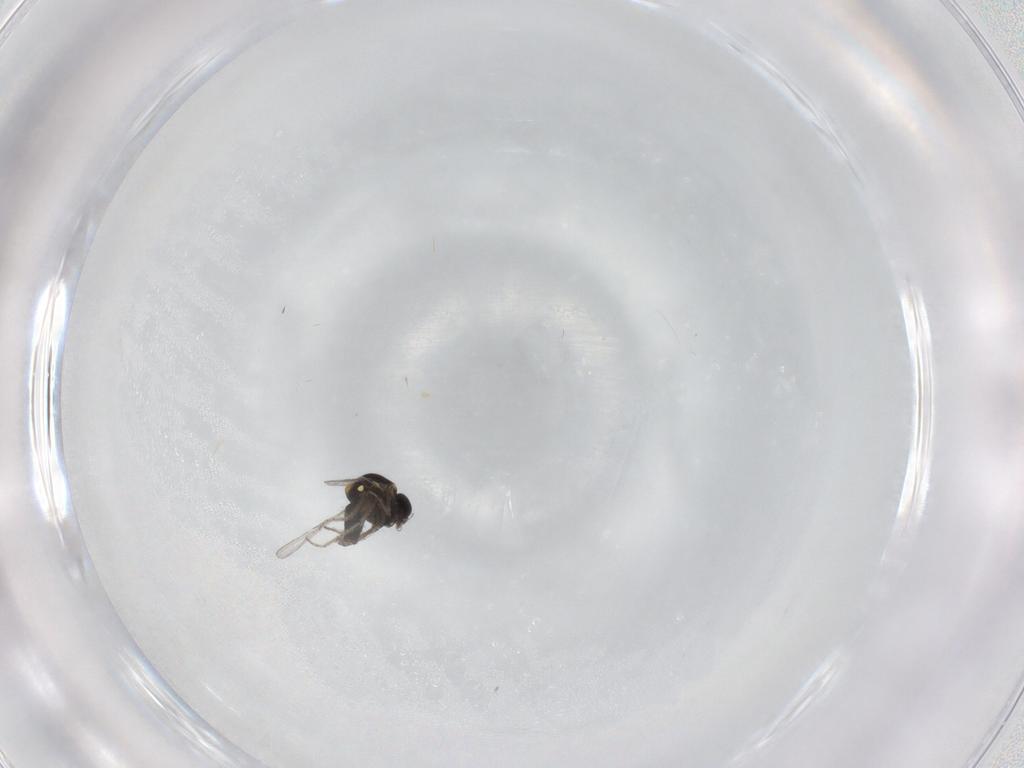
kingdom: Animalia
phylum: Arthropoda
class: Insecta
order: Diptera
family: Ceratopogonidae
